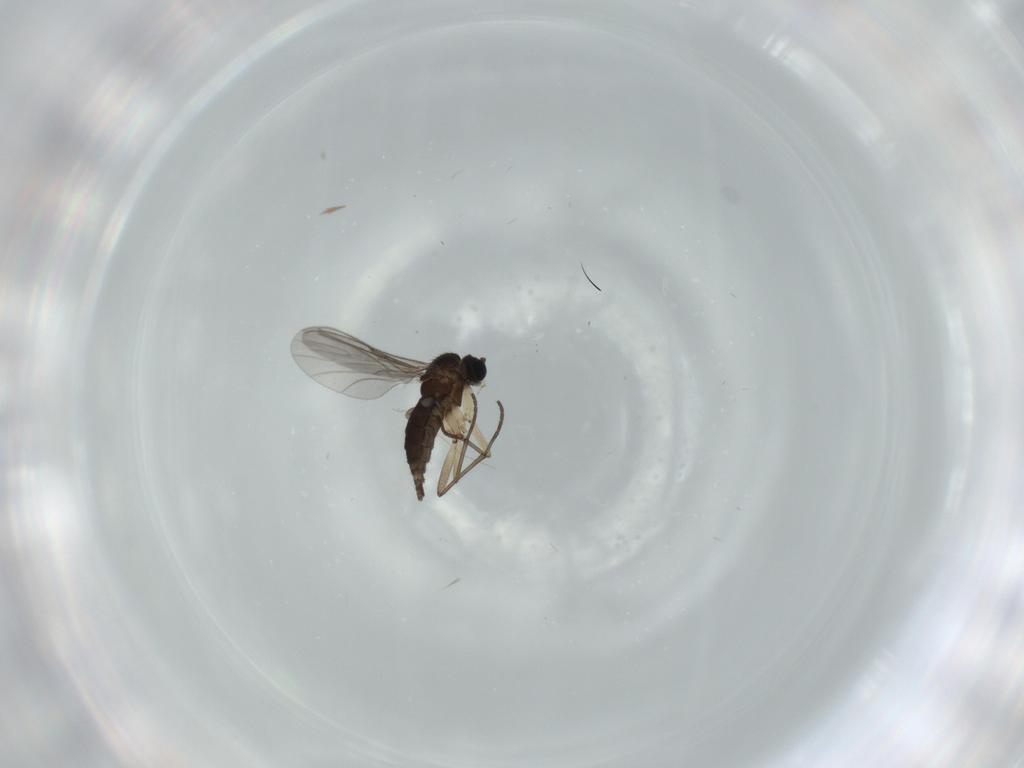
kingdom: Animalia
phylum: Arthropoda
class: Insecta
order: Diptera
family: Sciaridae
